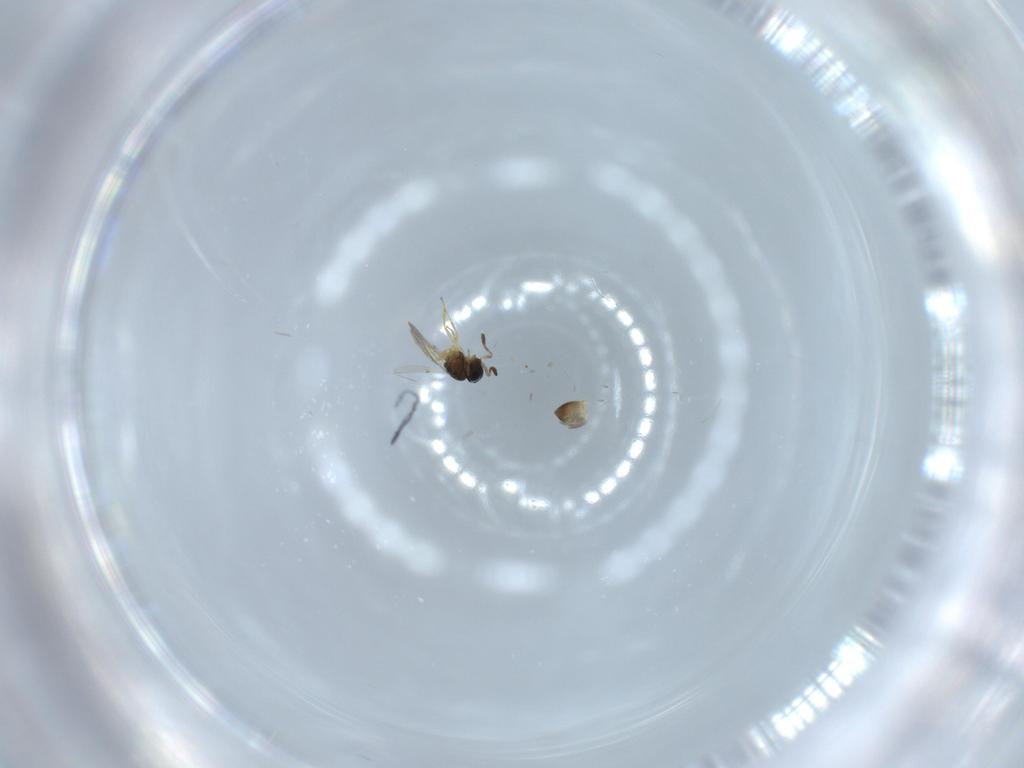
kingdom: Animalia
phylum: Arthropoda
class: Insecta
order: Hymenoptera
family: Scelionidae
